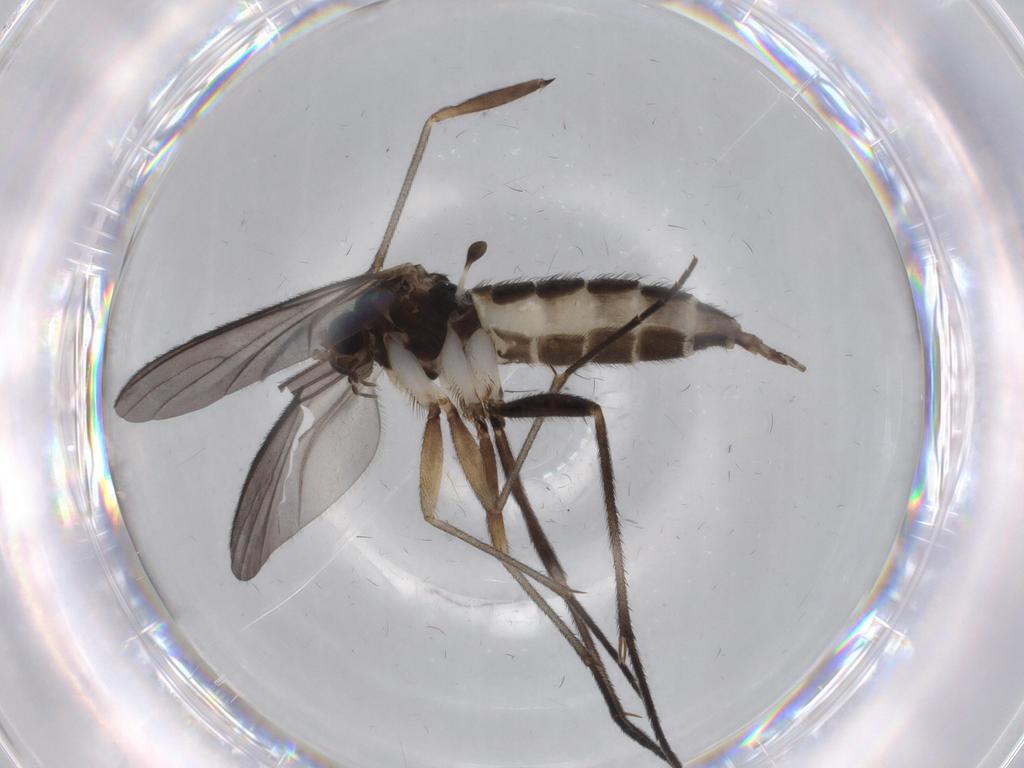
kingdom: Animalia
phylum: Arthropoda
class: Insecta
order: Diptera
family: Sciaridae
